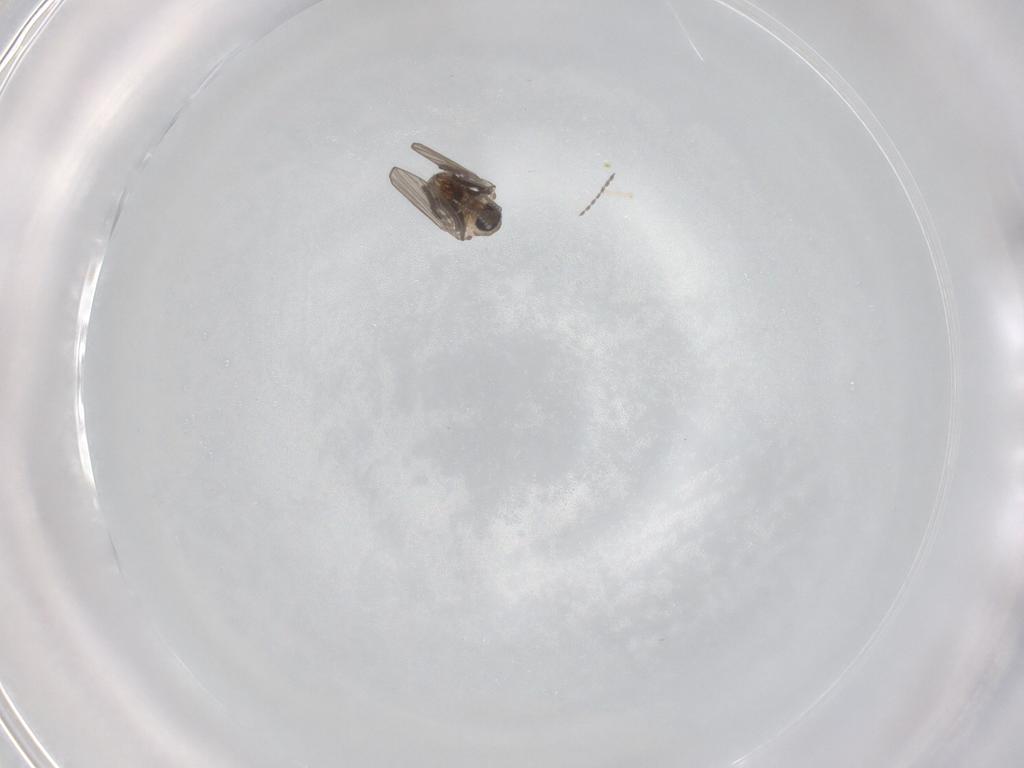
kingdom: Animalia
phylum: Arthropoda
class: Insecta
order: Diptera
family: Psychodidae
